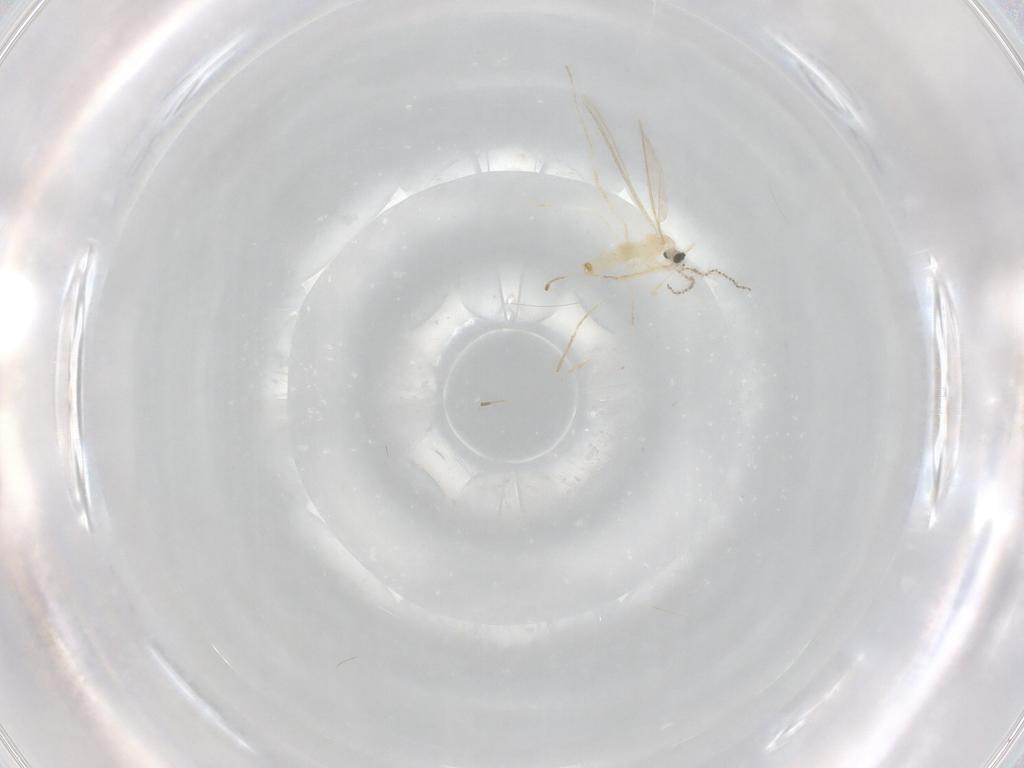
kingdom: Animalia
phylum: Arthropoda
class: Insecta
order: Diptera
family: Cecidomyiidae
